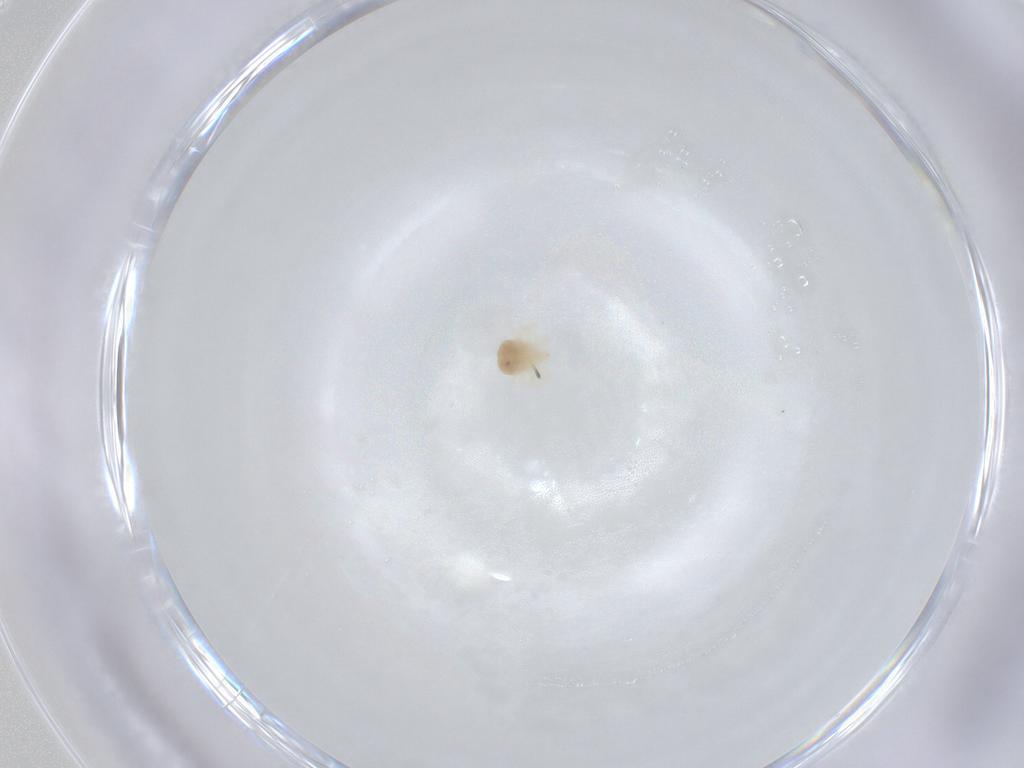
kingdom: Animalia
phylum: Arthropoda
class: Arachnida
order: Trombidiformes
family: Anystidae
